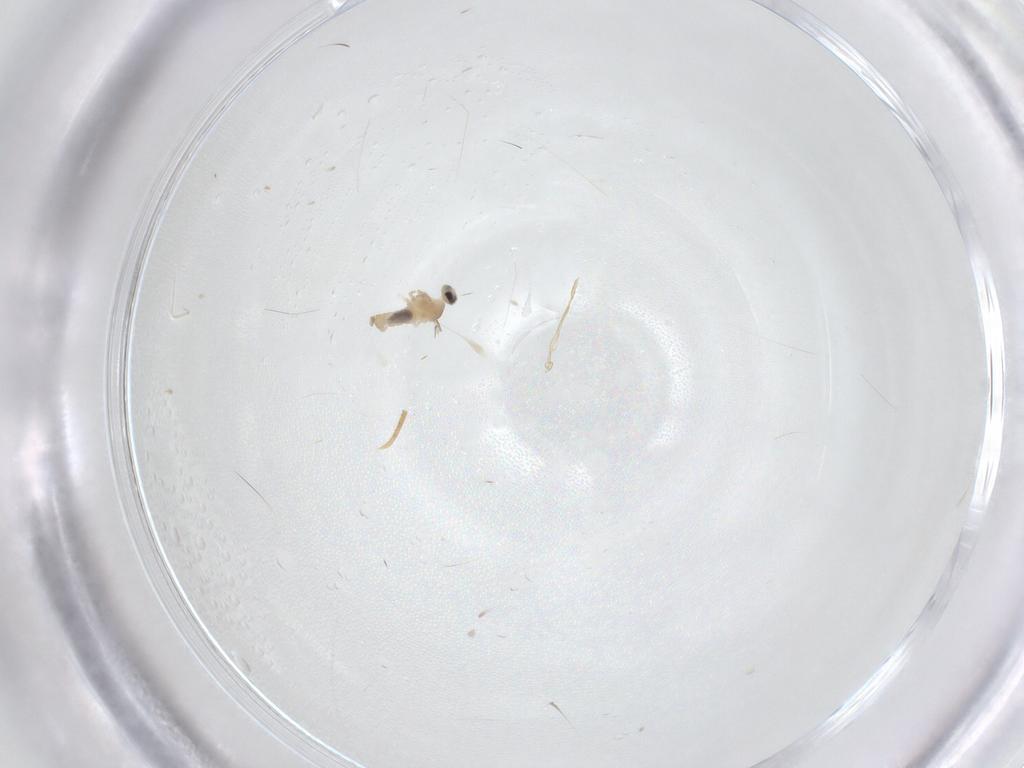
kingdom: Animalia
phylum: Arthropoda
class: Insecta
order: Diptera
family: Cecidomyiidae
